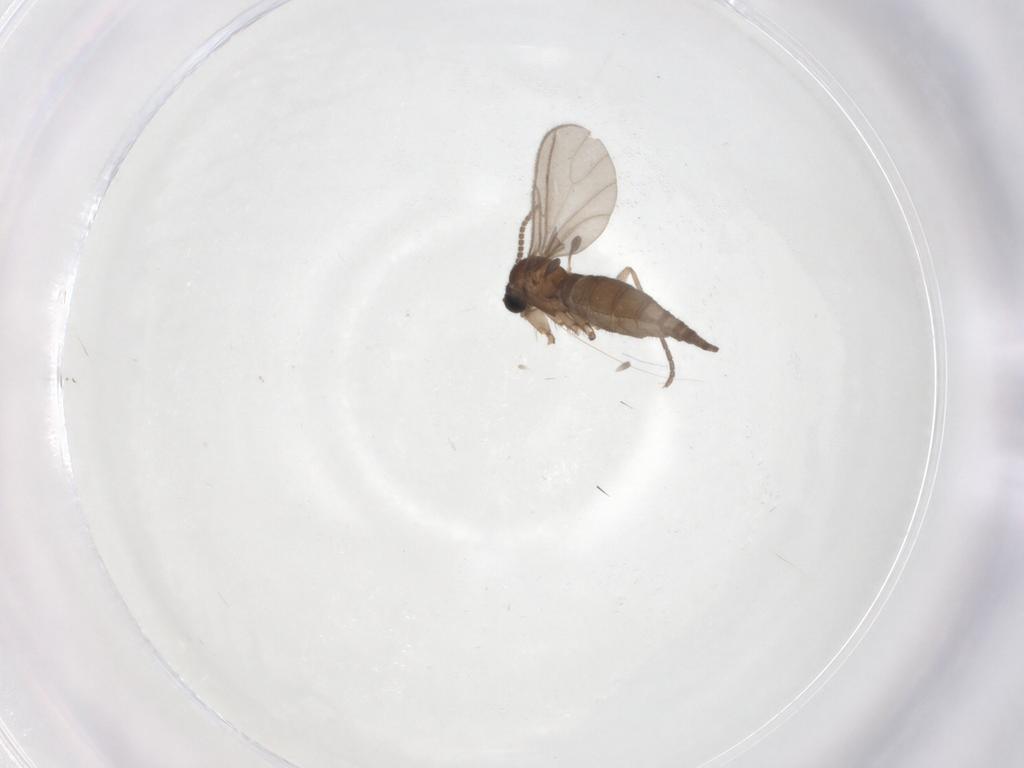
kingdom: Animalia
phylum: Arthropoda
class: Insecta
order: Diptera
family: Sciaridae
